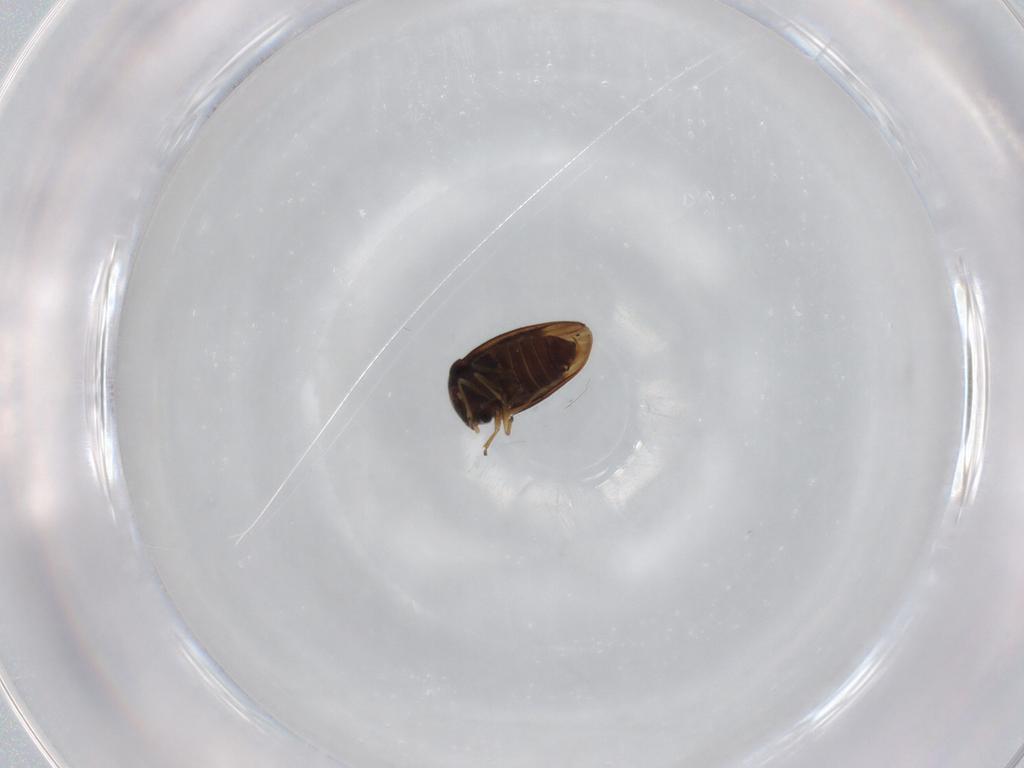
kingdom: Animalia
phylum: Arthropoda
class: Insecta
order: Hemiptera
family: Schizopteridae
